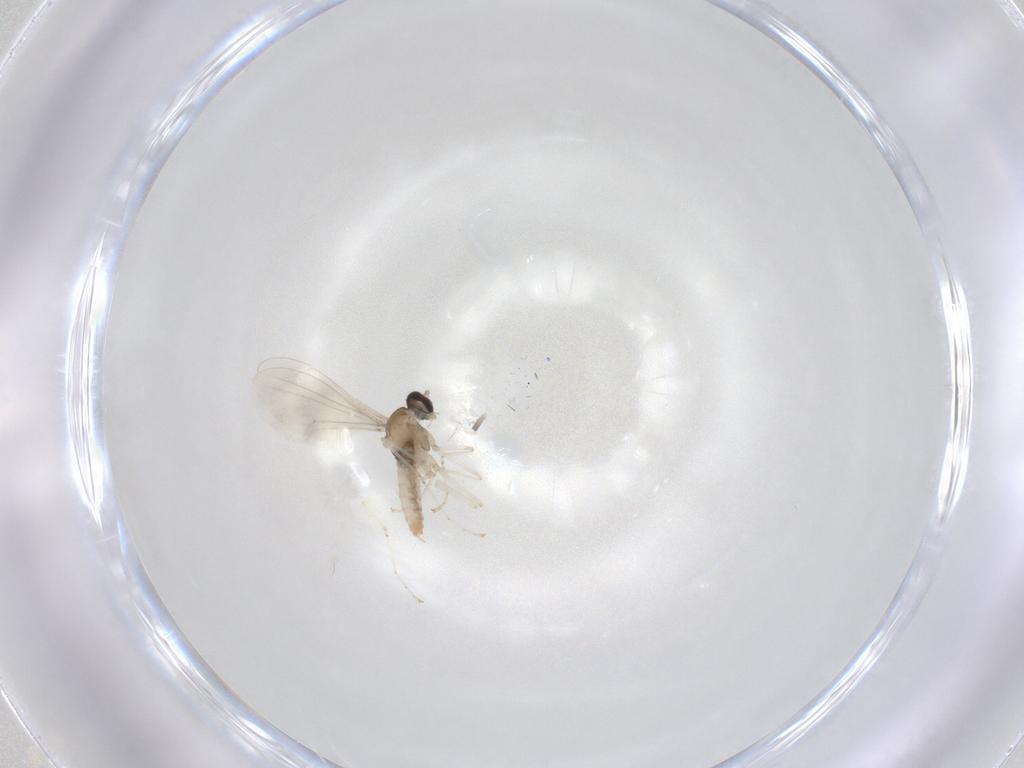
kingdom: Animalia
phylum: Arthropoda
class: Insecta
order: Diptera
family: Cecidomyiidae
